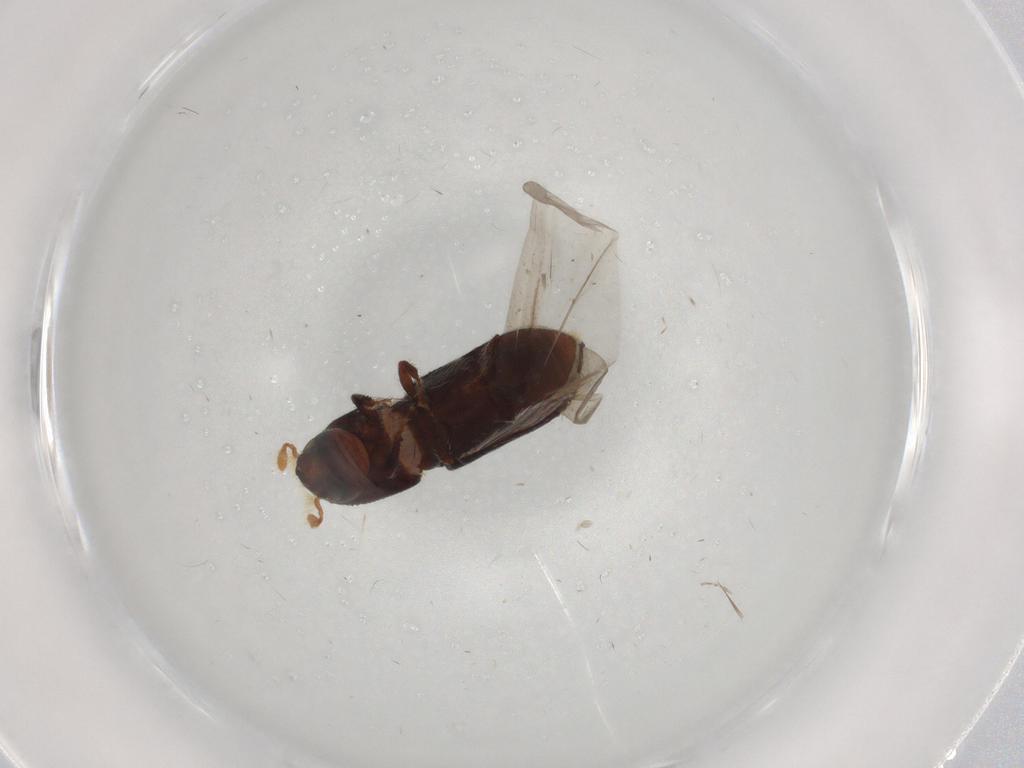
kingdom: Animalia
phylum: Arthropoda
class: Insecta
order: Coleoptera
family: Curculionidae
